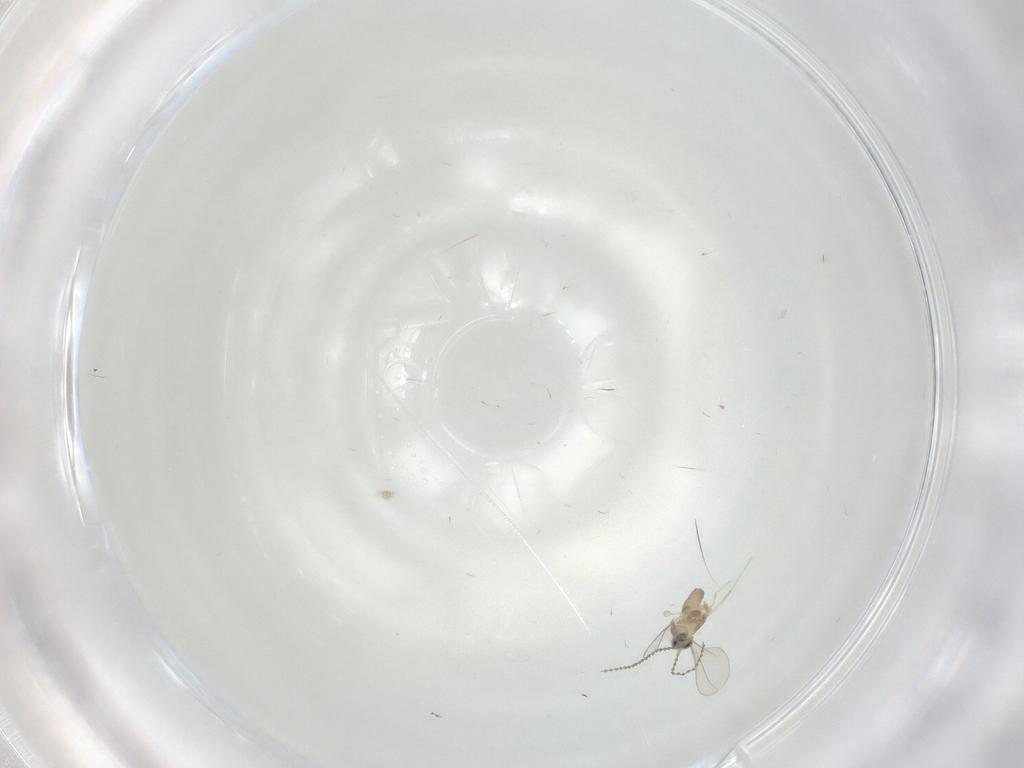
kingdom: Animalia
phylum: Arthropoda
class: Insecta
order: Diptera
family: Cecidomyiidae
